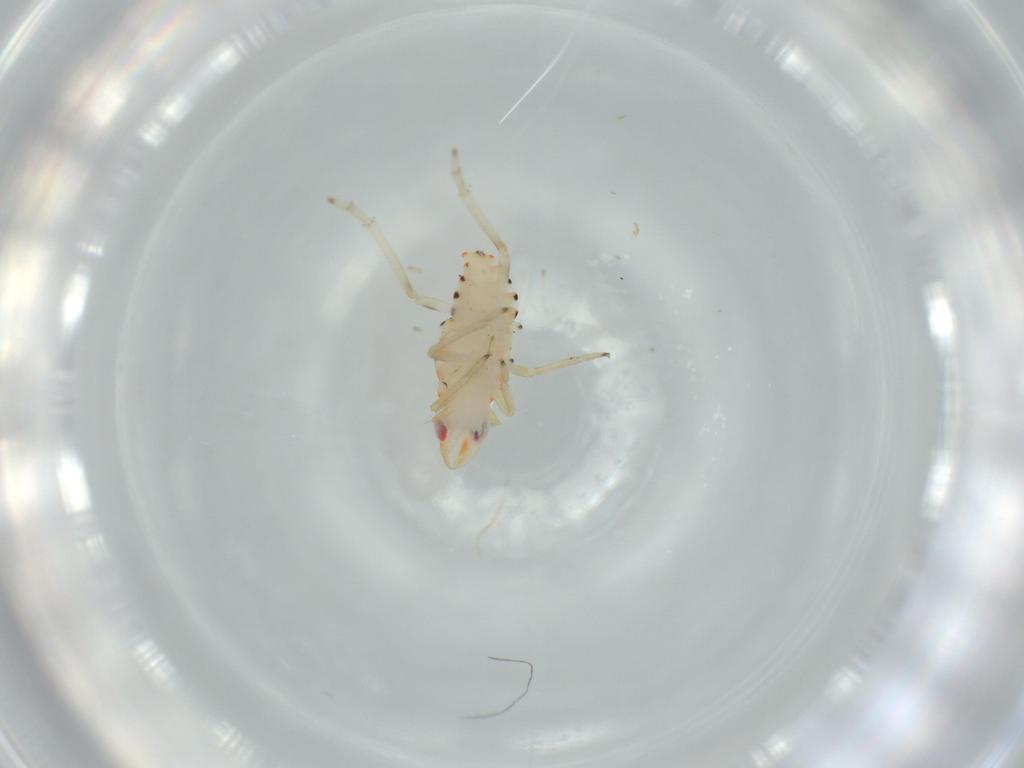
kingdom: Animalia
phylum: Arthropoda
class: Insecta
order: Hemiptera
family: Tropiduchidae
